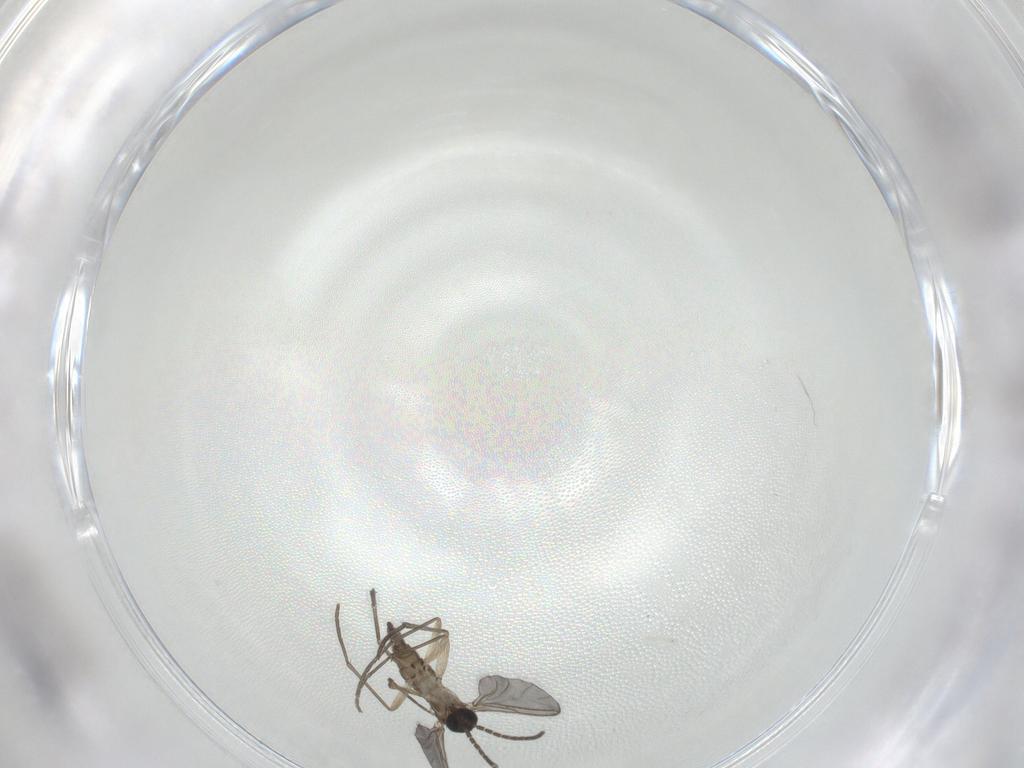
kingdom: Animalia
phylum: Arthropoda
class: Insecta
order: Diptera
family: Sciaridae
